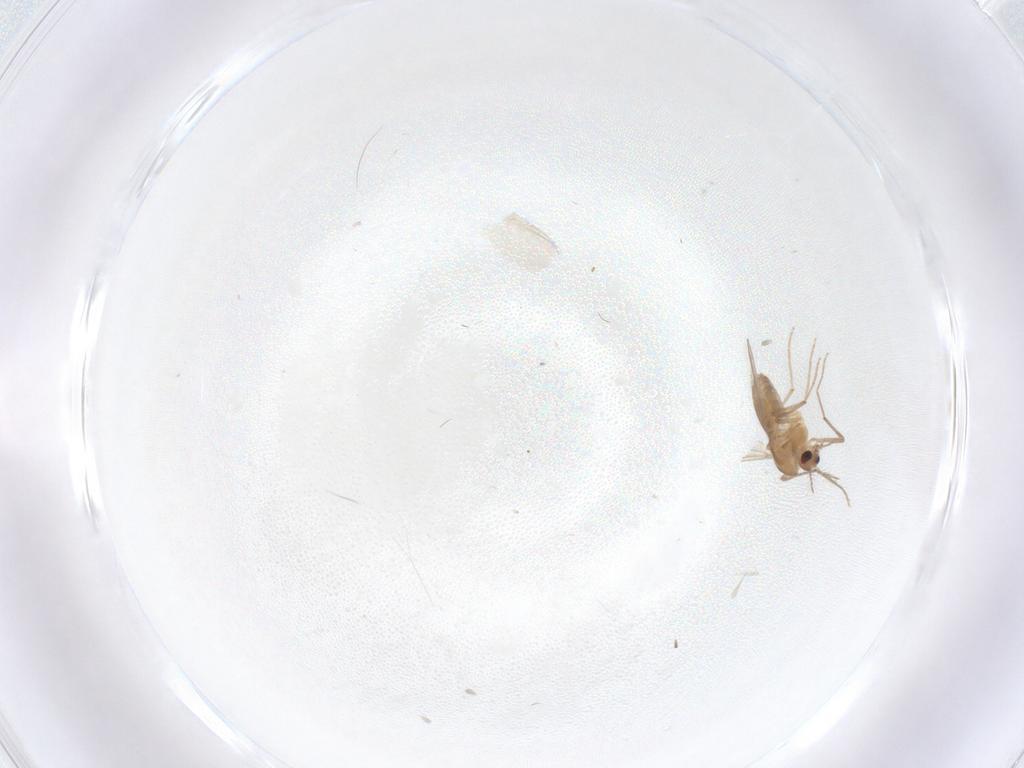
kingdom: Animalia
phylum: Arthropoda
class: Insecta
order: Diptera
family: Chironomidae
